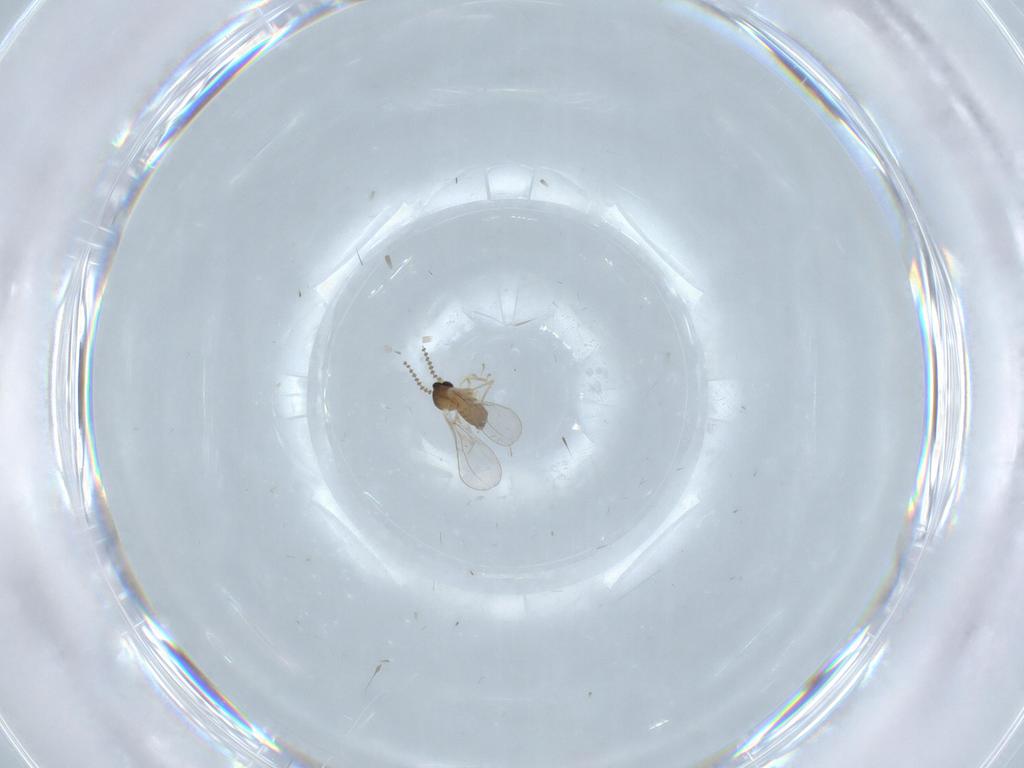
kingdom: Animalia
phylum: Arthropoda
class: Insecta
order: Diptera
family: Cecidomyiidae
